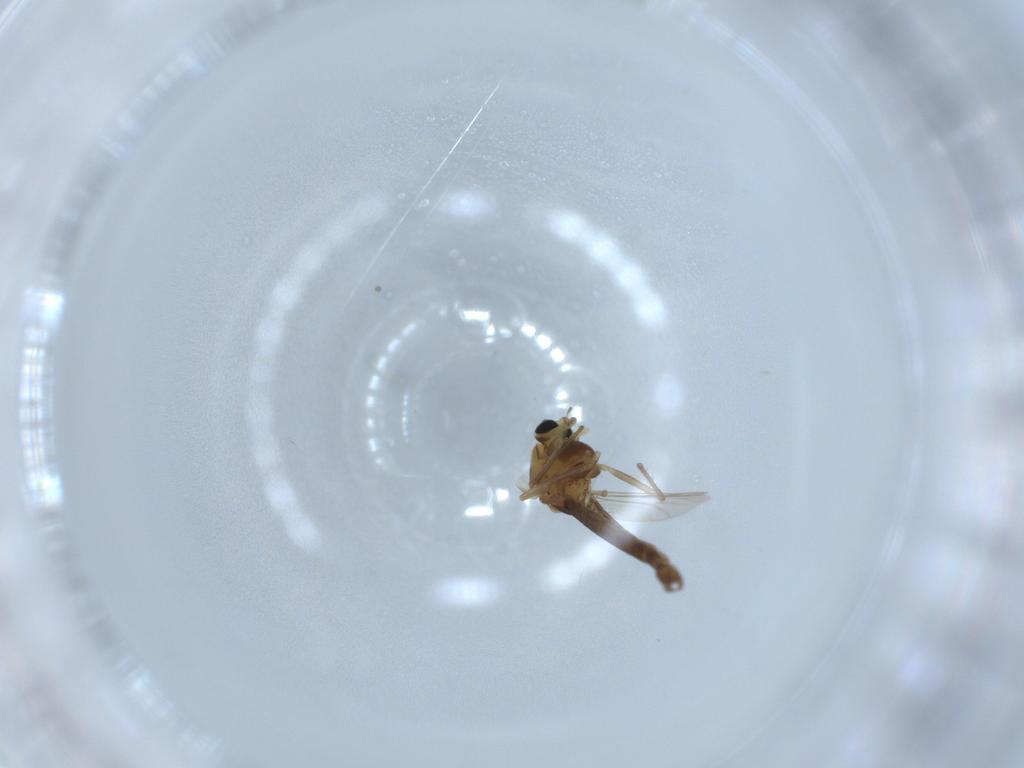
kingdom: Animalia
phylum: Arthropoda
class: Insecta
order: Diptera
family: Chironomidae
